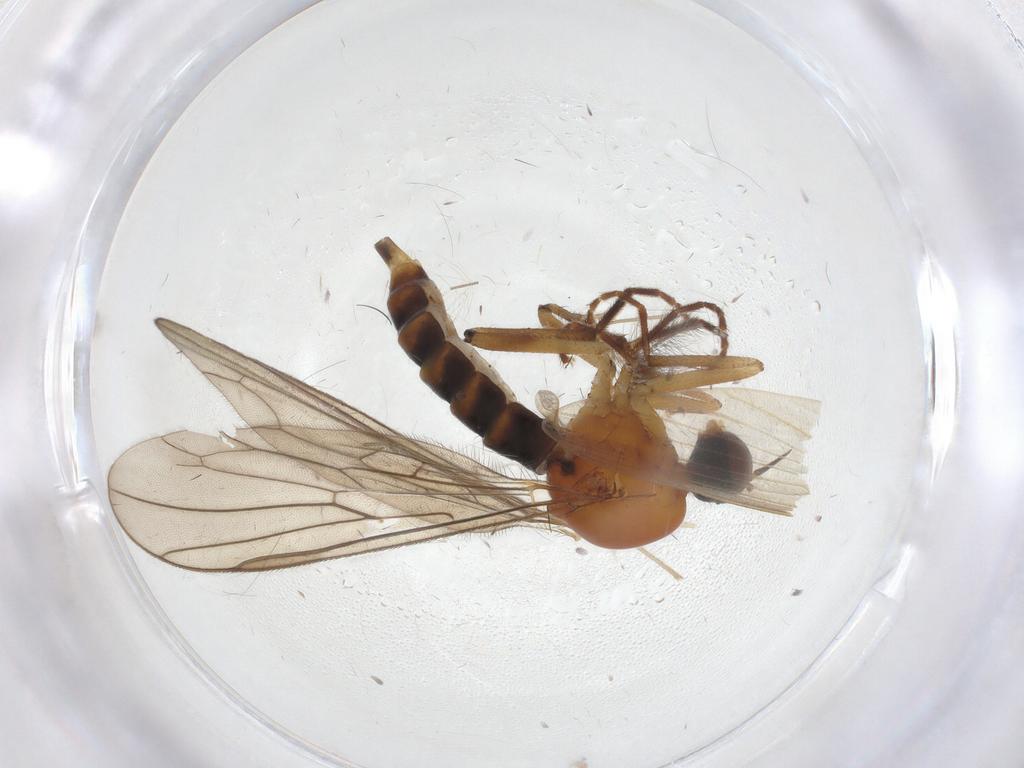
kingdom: Animalia
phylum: Arthropoda
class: Insecta
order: Diptera
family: Hybotidae
